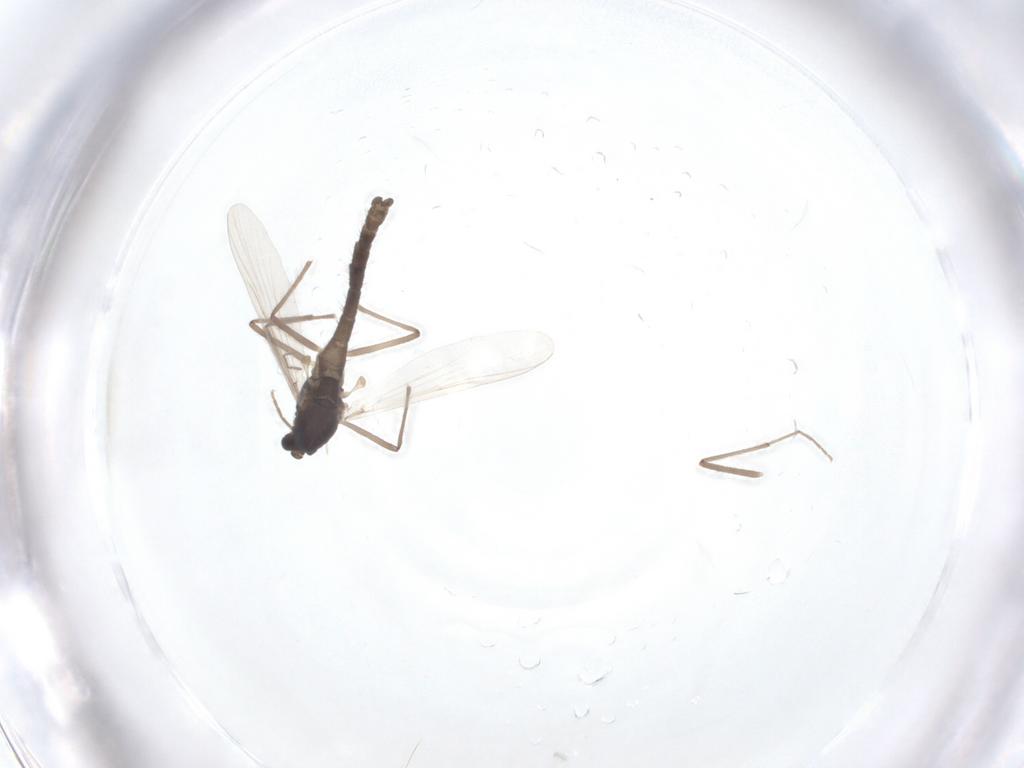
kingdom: Animalia
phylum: Arthropoda
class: Insecta
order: Diptera
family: Chironomidae
